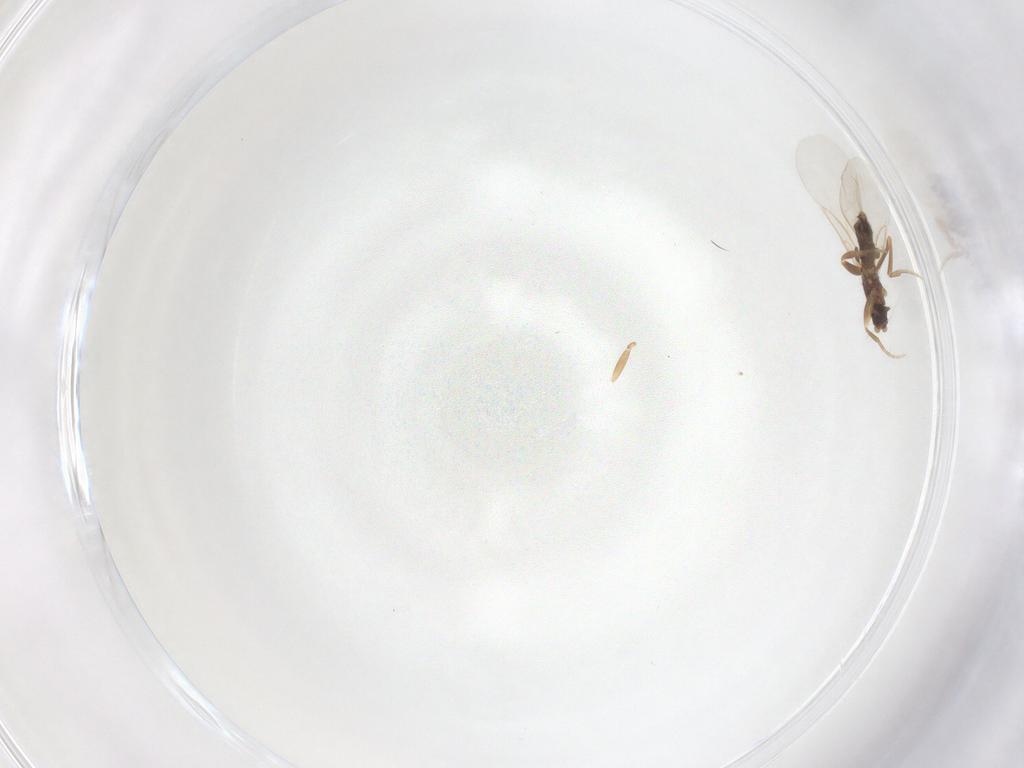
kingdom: Animalia
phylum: Arthropoda
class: Insecta
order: Diptera
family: Phoridae
